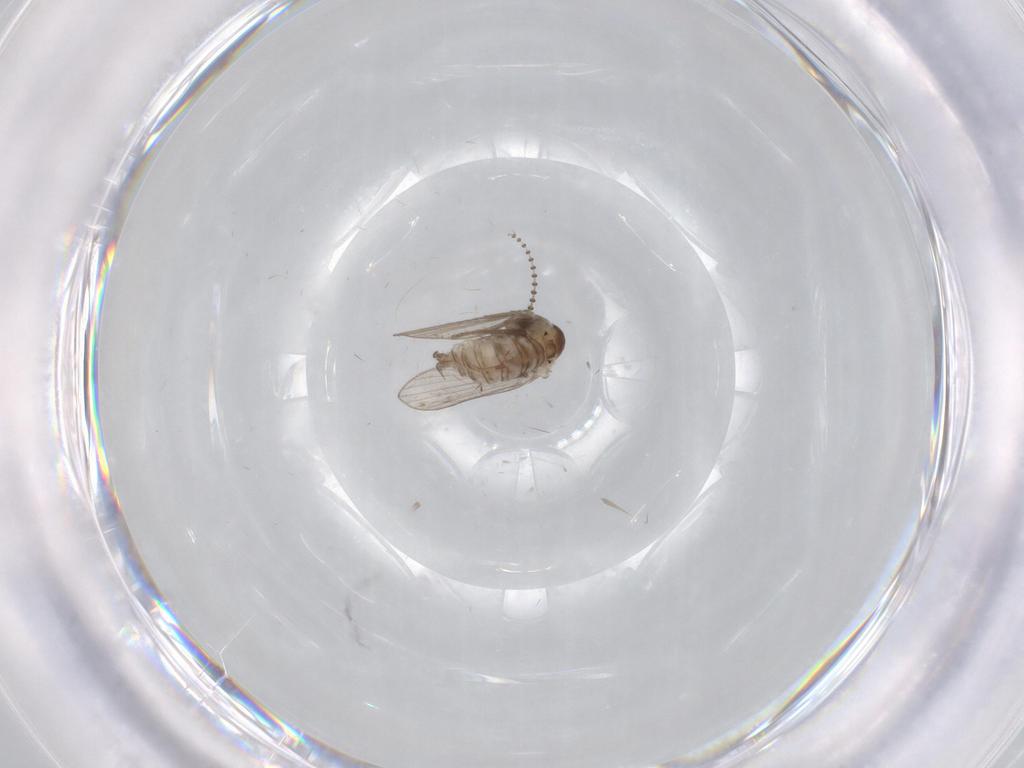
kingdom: Animalia
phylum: Arthropoda
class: Insecta
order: Diptera
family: Psychodidae
